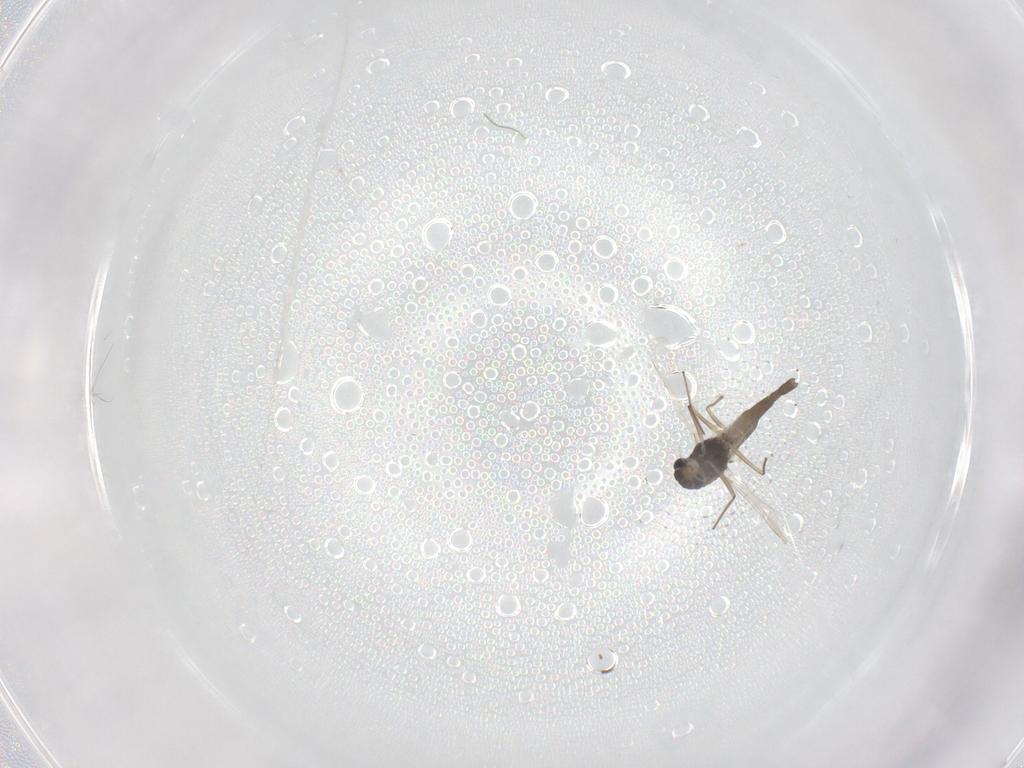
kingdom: Animalia
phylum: Arthropoda
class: Insecta
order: Diptera
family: Chironomidae
